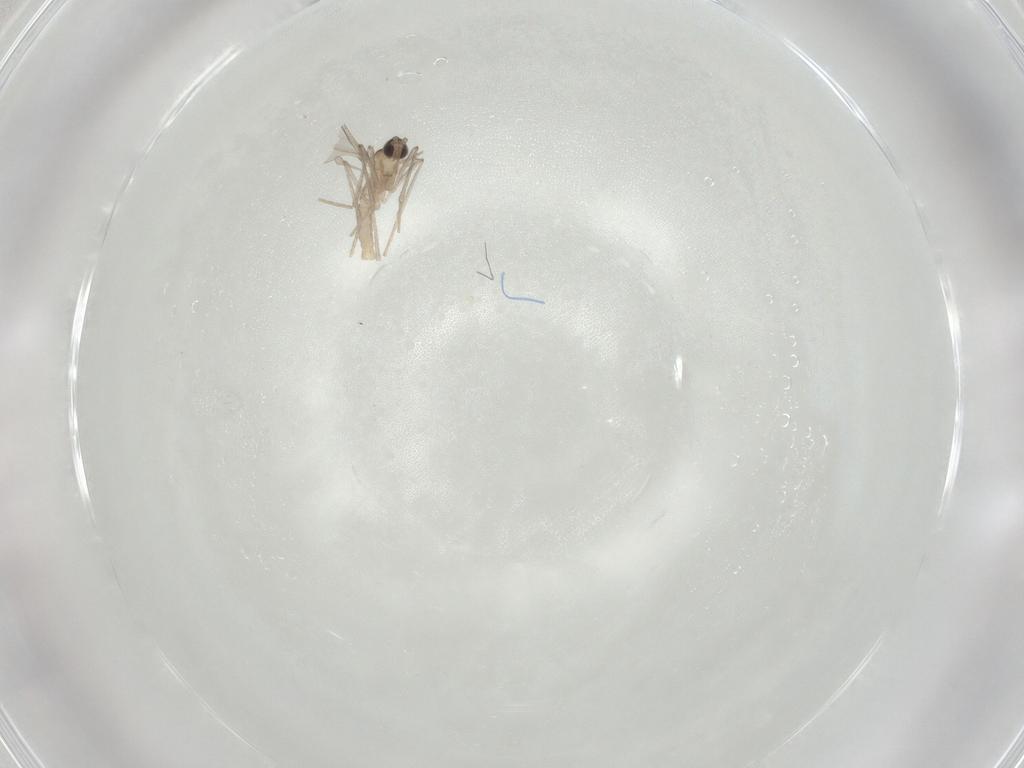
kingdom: Animalia
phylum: Arthropoda
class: Insecta
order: Diptera
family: Cecidomyiidae
